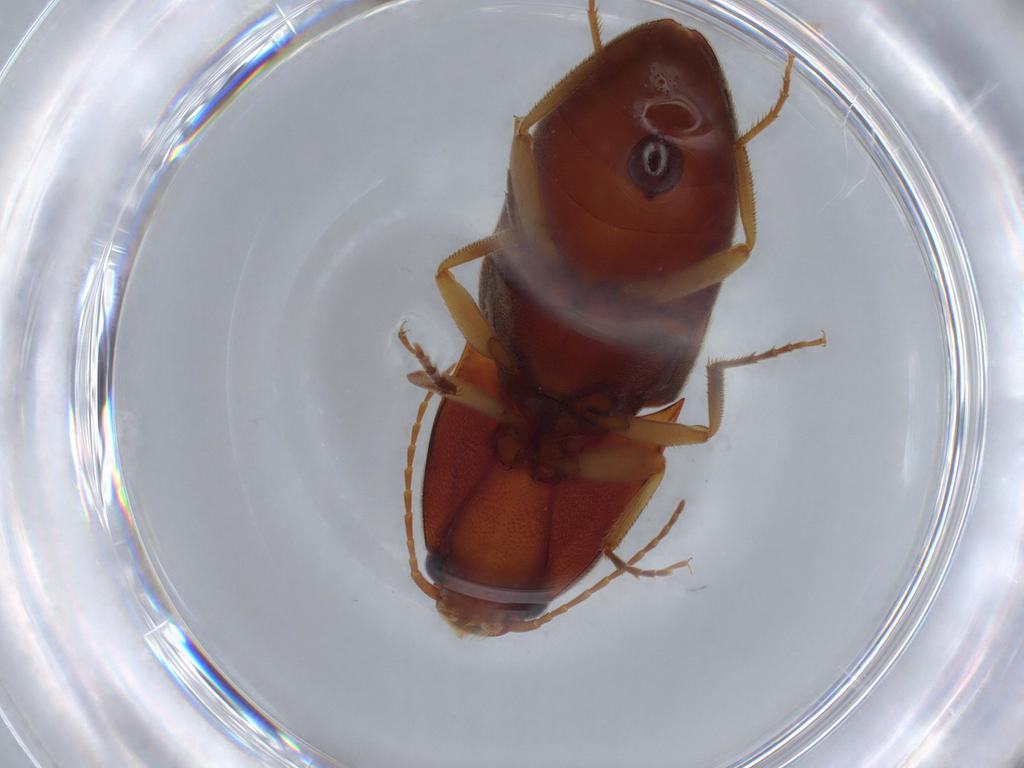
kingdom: Animalia
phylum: Arthropoda
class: Insecta
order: Coleoptera
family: Elateridae
